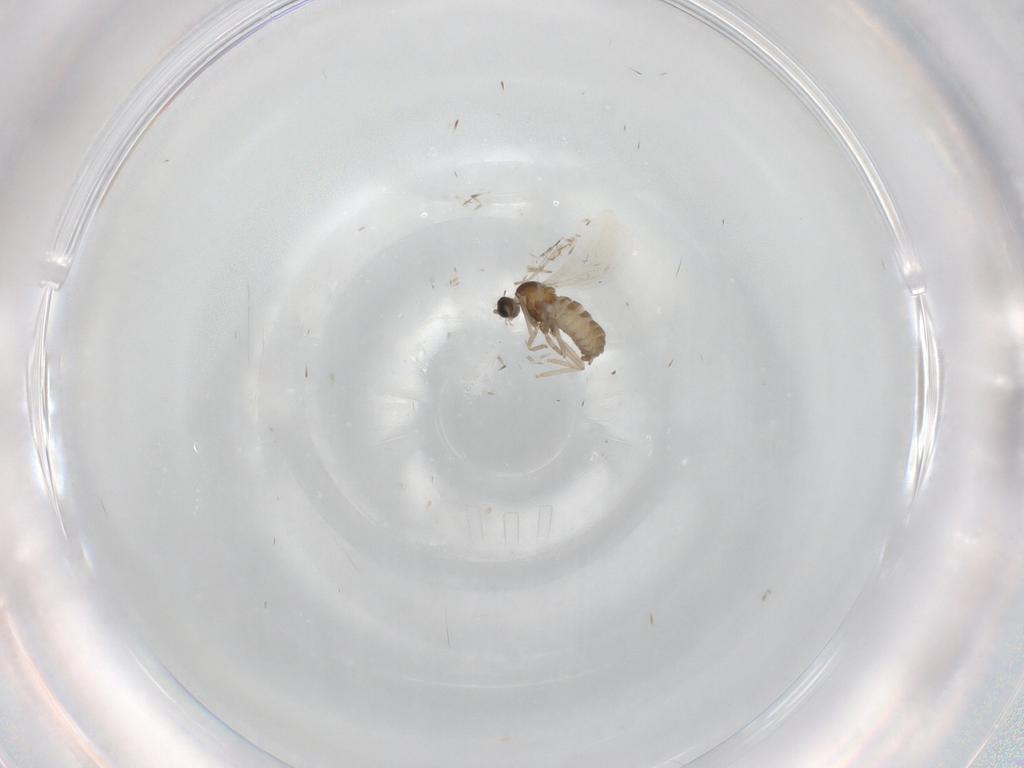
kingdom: Animalia
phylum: Arthropoda
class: Insecta
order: Diptera
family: Cecidomyiidae
